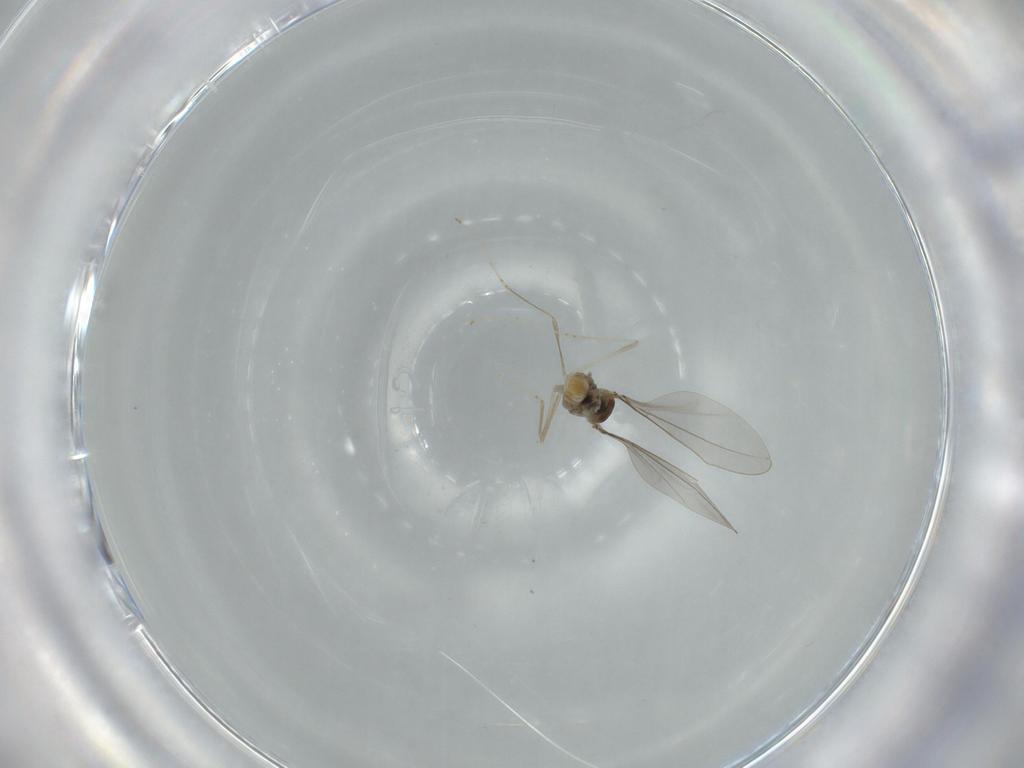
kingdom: Animalia
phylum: Arthropoda
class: Insecta
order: Diptera
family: Cecidomyiidae
